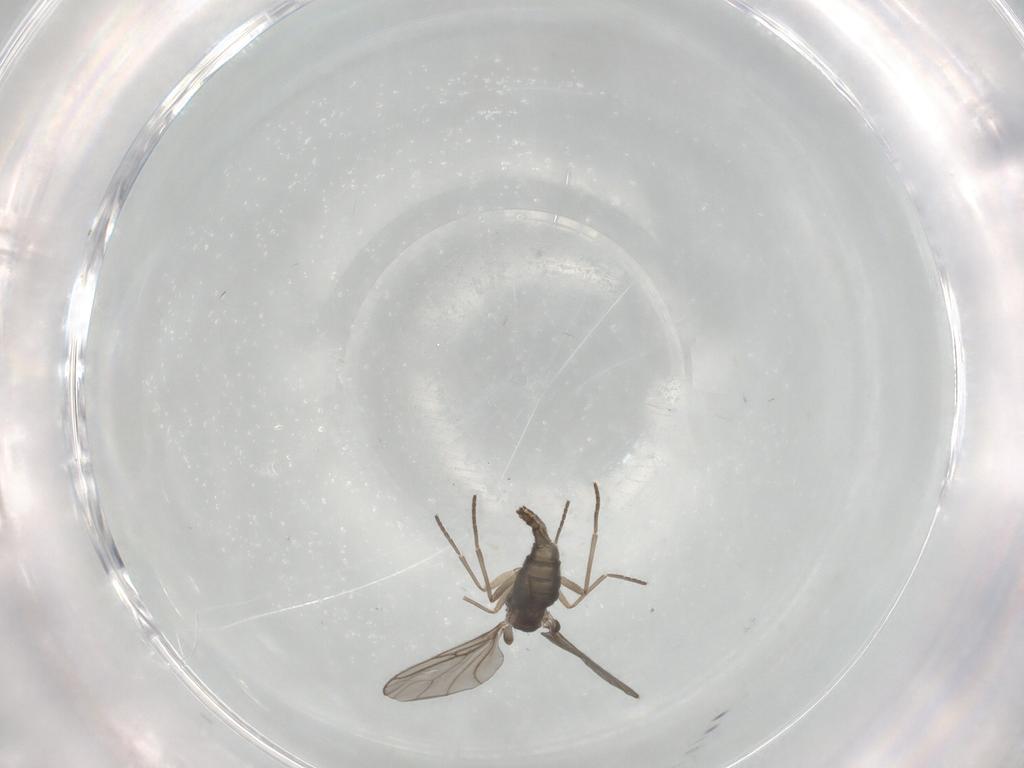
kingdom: Animalia
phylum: Arthropoda
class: Insecta
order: Diptera
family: Sciaridae
